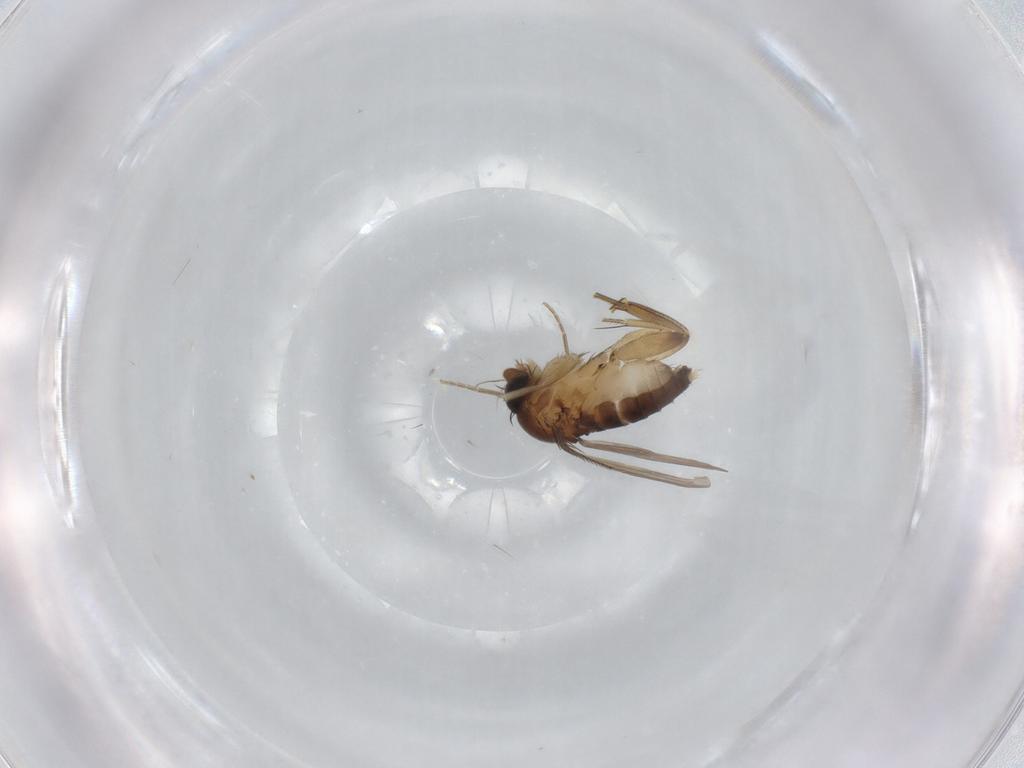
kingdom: Animalia
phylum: Arthropoda
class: Insecta
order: Diptera
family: Phoridae
